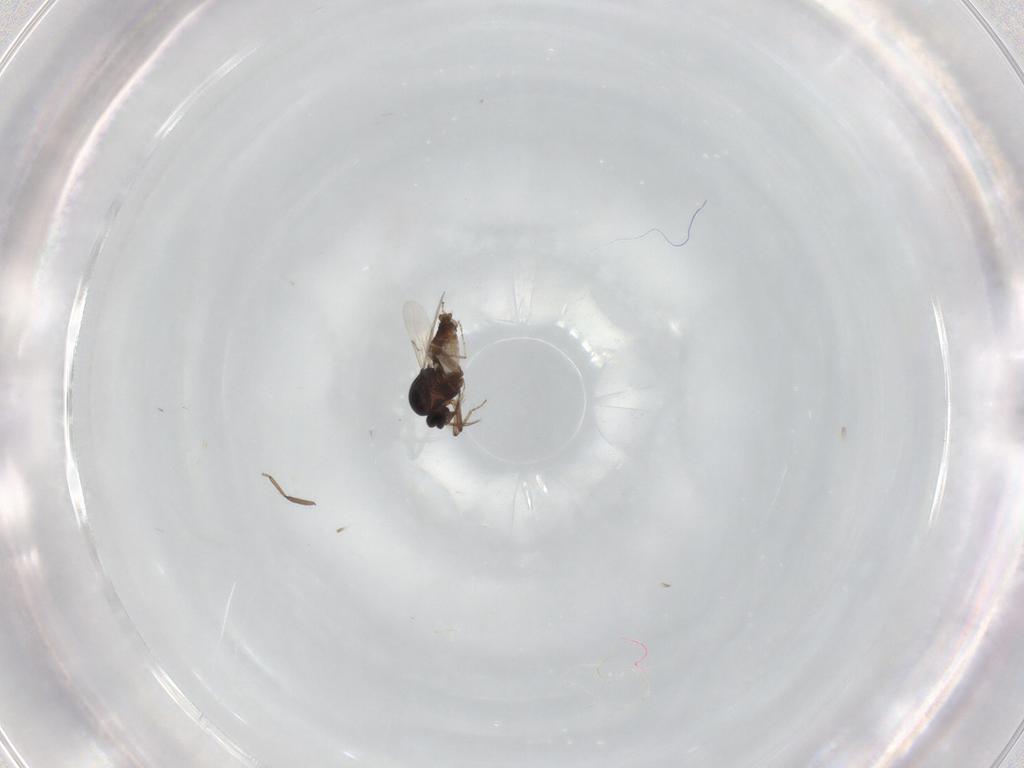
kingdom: Animalia
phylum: Arthropoda
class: Insecta
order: Diptera
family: Ceratopogonidae
